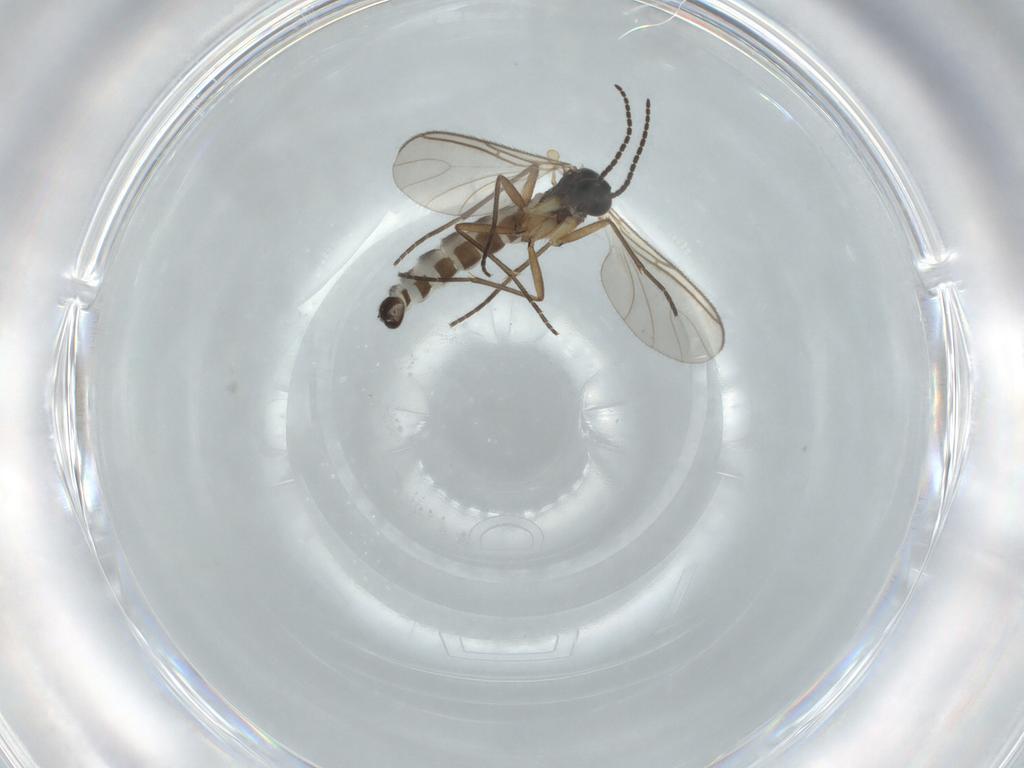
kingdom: Animalia
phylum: Arthropoda
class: Insecta
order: Diptera
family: Sciaridae
